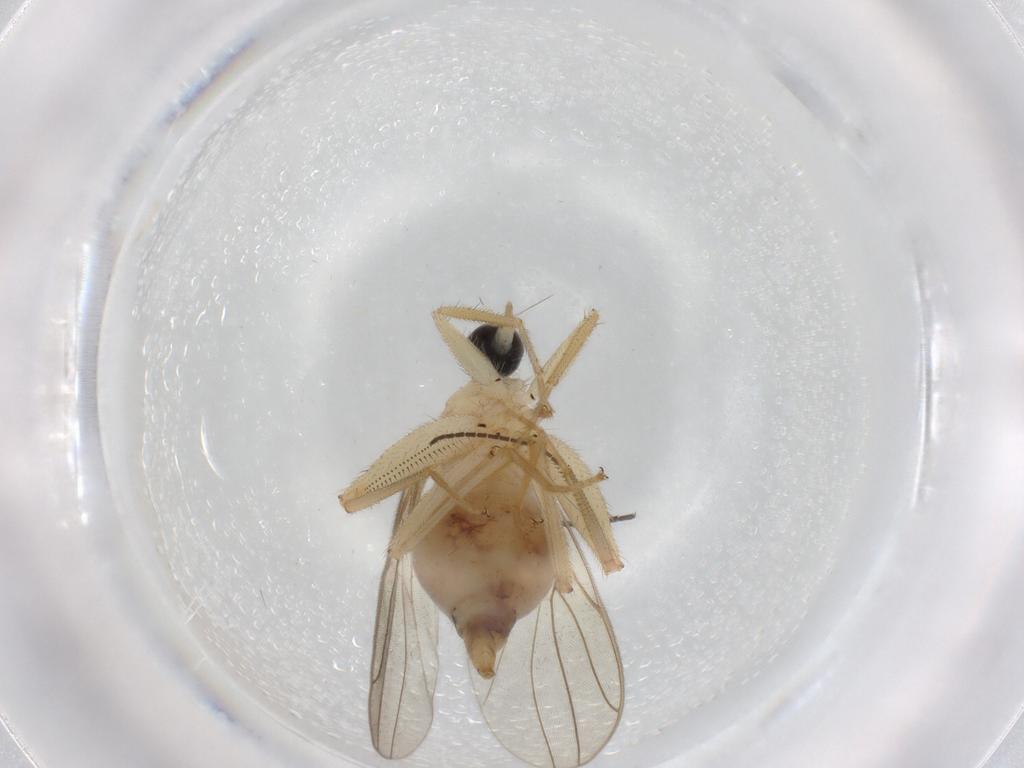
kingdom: Animalia
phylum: Arthropoda
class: Insecta
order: Diptera
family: Hybotidae
